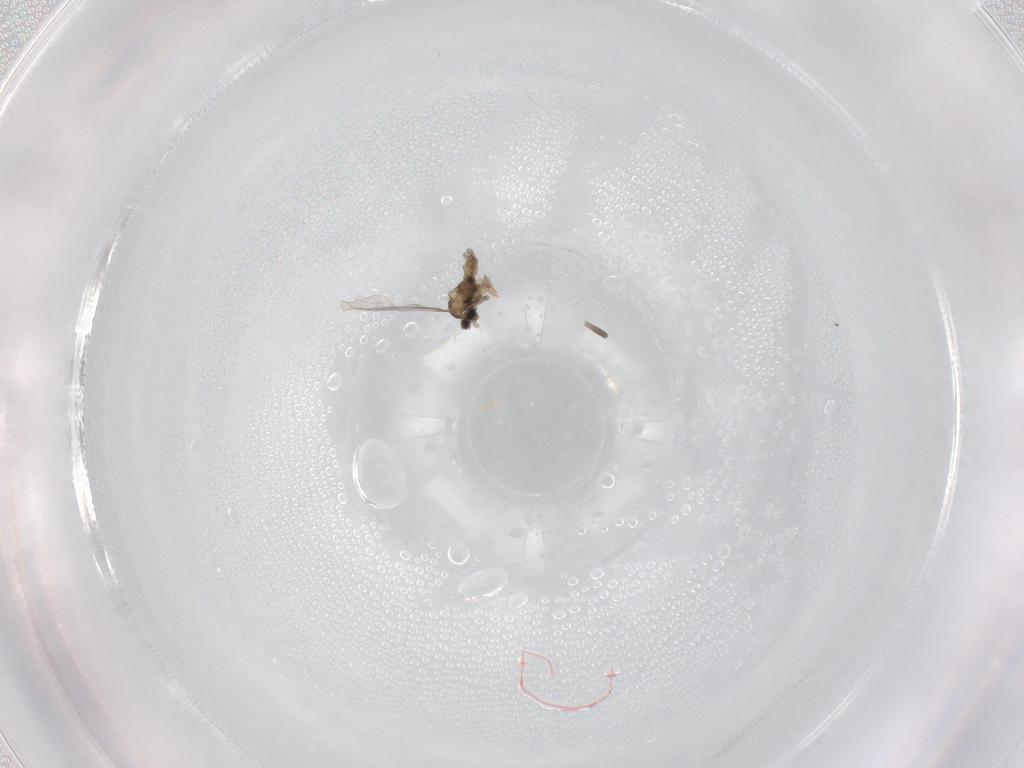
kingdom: Animalia
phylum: Arthropoda
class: Insecta
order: Diptera
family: Cecidomyiidae
